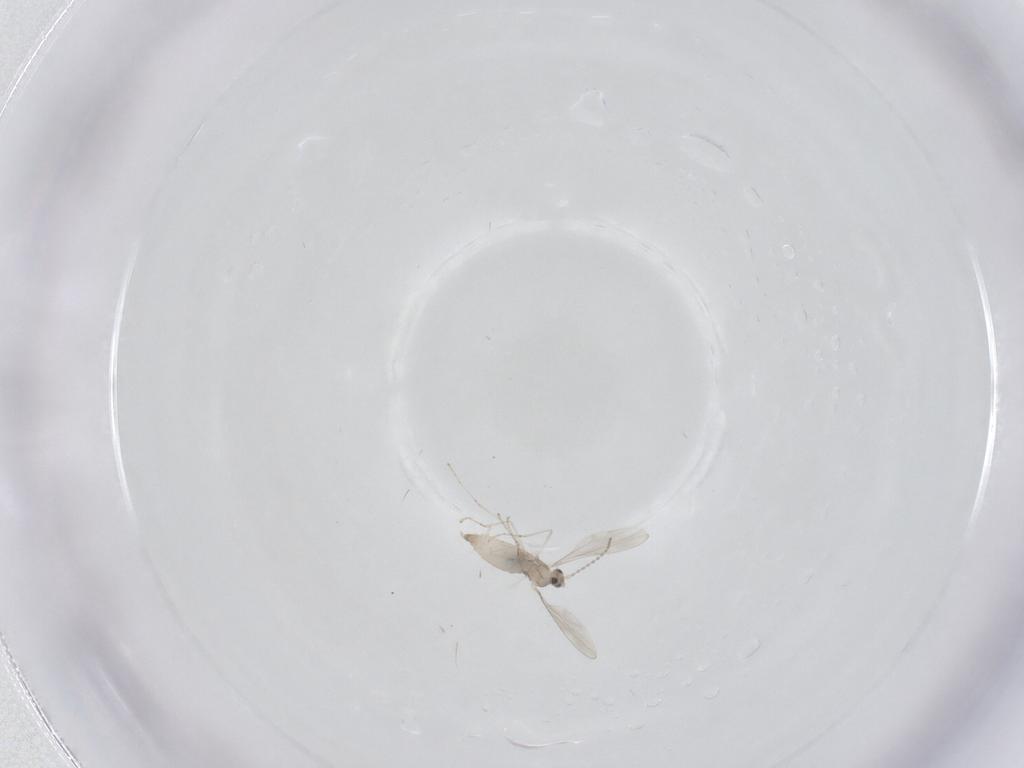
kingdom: Animalia
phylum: Arthropoda
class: Insecta
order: Diptera
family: Cecidomyiidae
